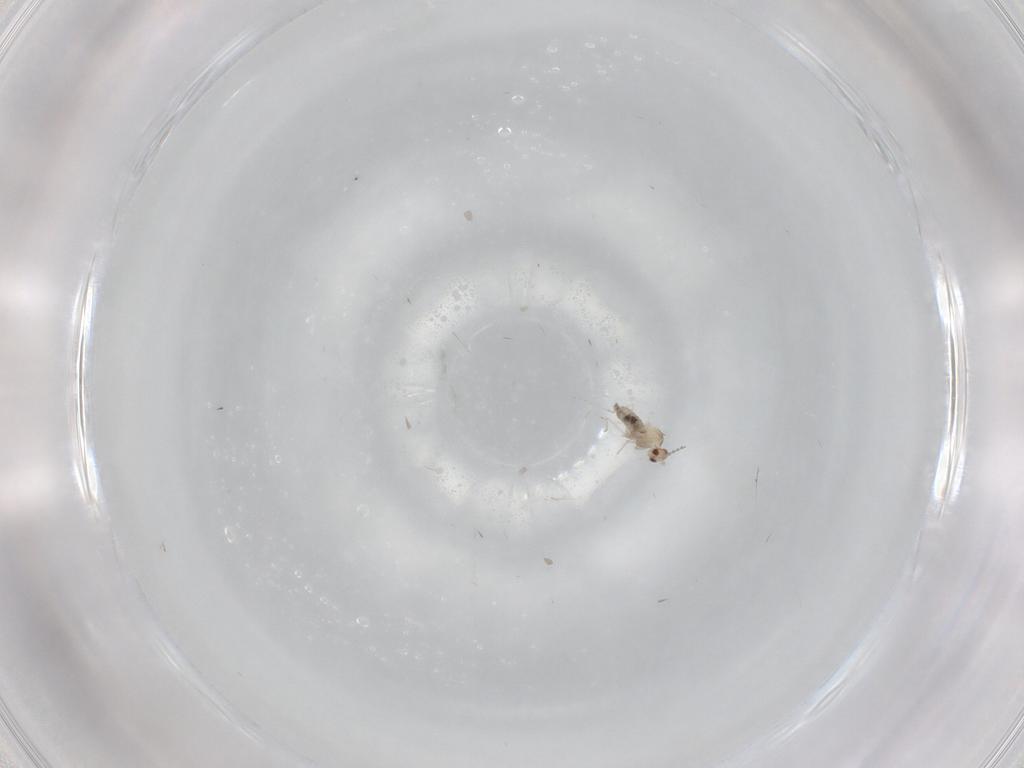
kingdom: Animalia
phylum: Arthropoda
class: Insecta
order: Diptera
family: Cecidomyiidae
